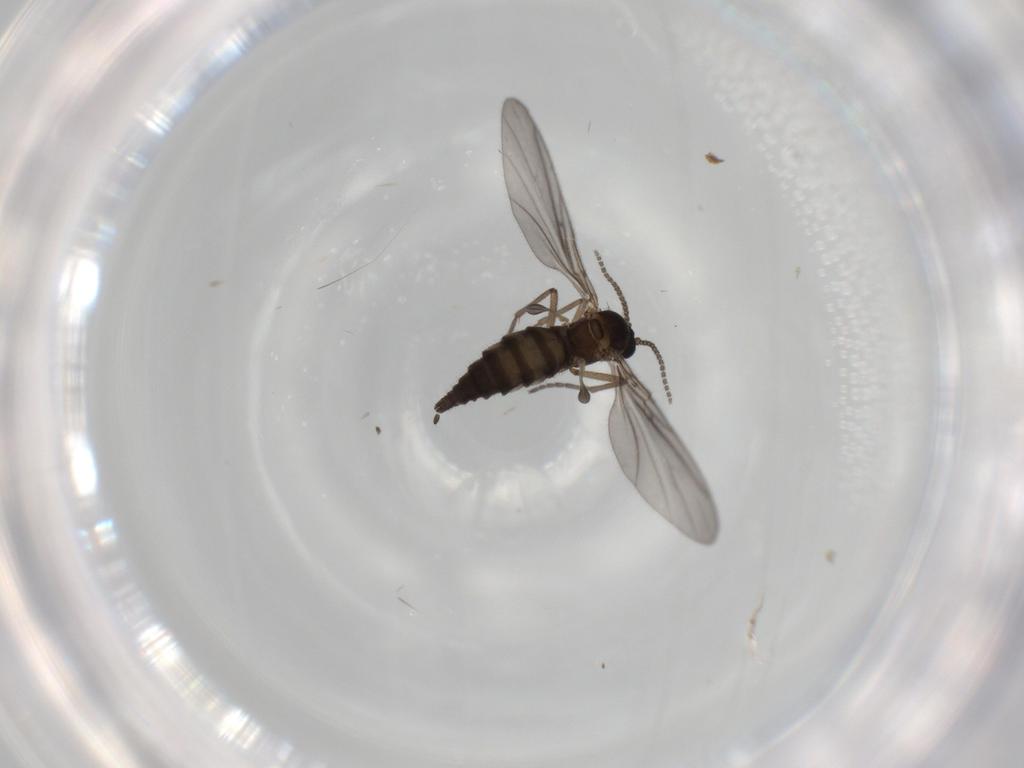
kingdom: Animalia
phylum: Arthropoda
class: Insecta
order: Diptera
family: Sciaridae
